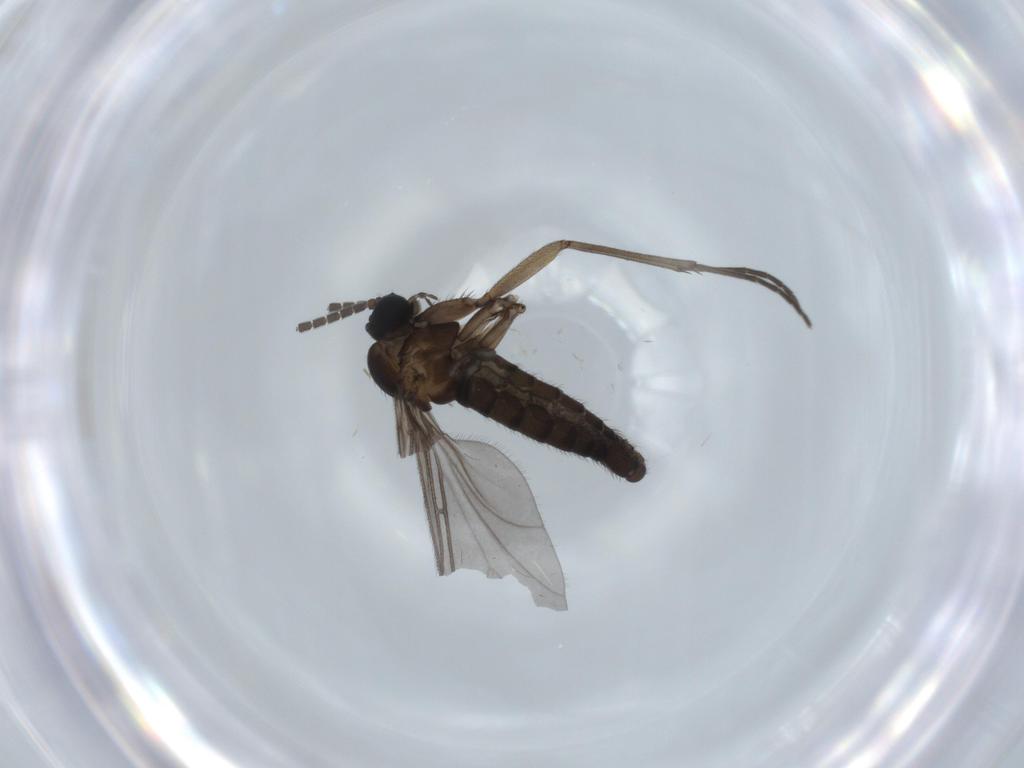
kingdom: Animalia
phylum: Arthropoda
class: Insecta
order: Diptera
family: Sciaridae
